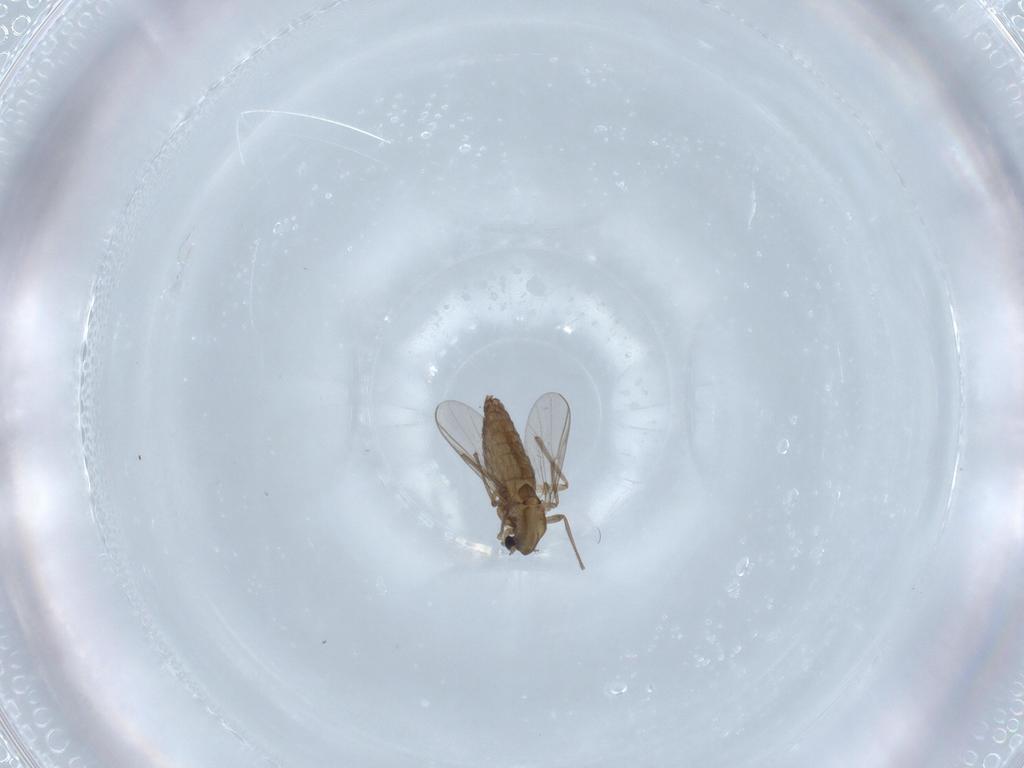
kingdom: Animalia
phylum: Arthropoda
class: Insecta
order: Diptera
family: Chironomidae
